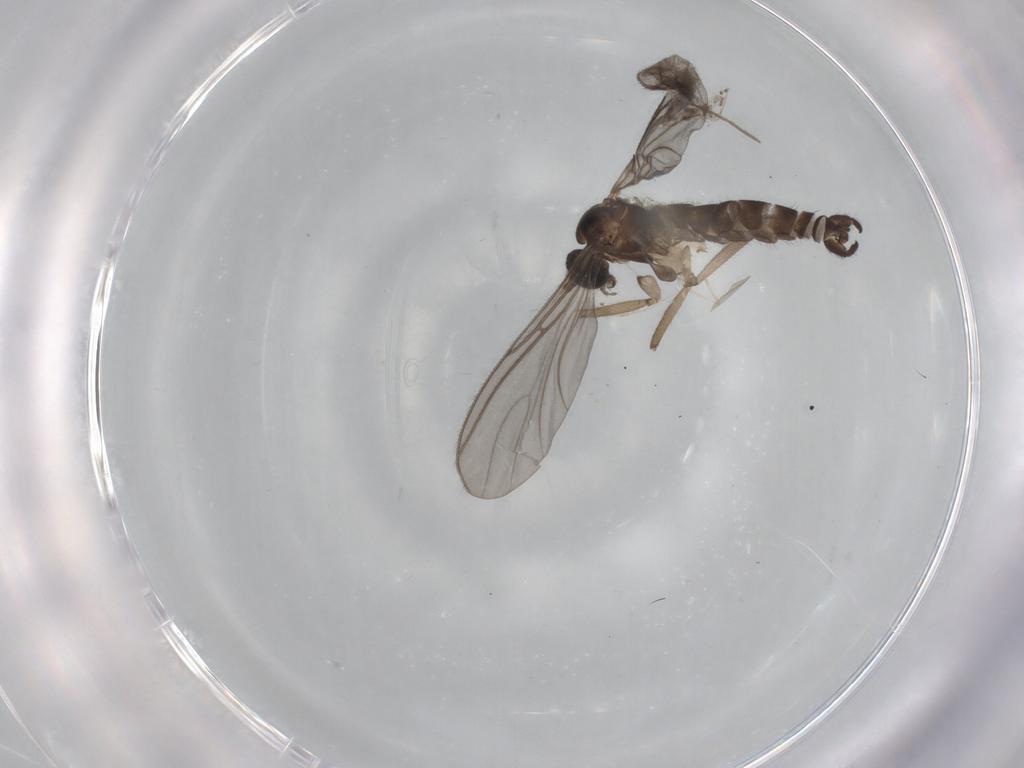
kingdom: Animalia
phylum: Arthropoda
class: Insecta
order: Diptera
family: Chironomidae
